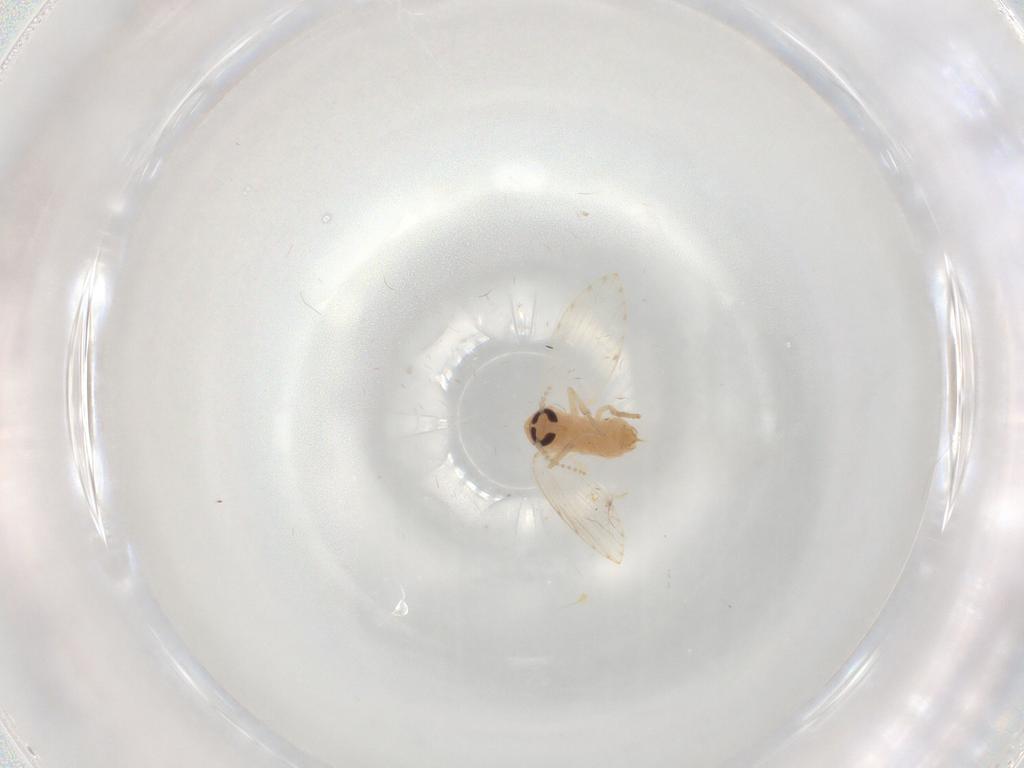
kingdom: Animalia
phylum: Arthropoda
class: Insecta
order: Diptera
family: Psychodidae
